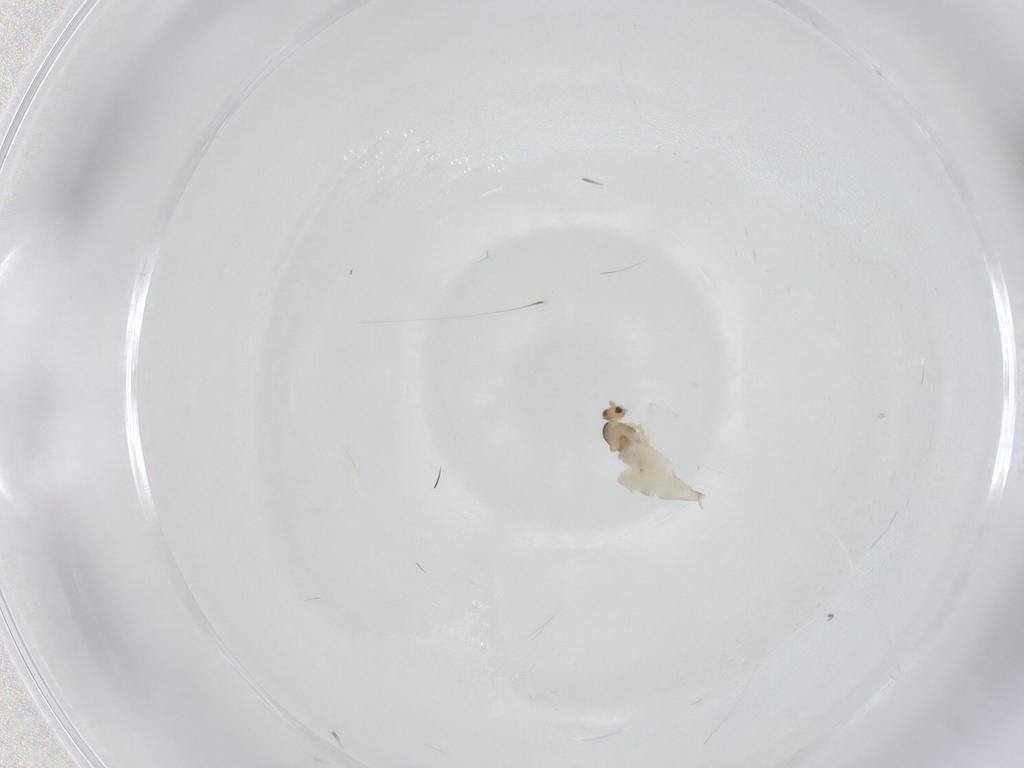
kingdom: Animalia
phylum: Arthropoda
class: Insecta
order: Diptera
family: Cecidomyiidae
